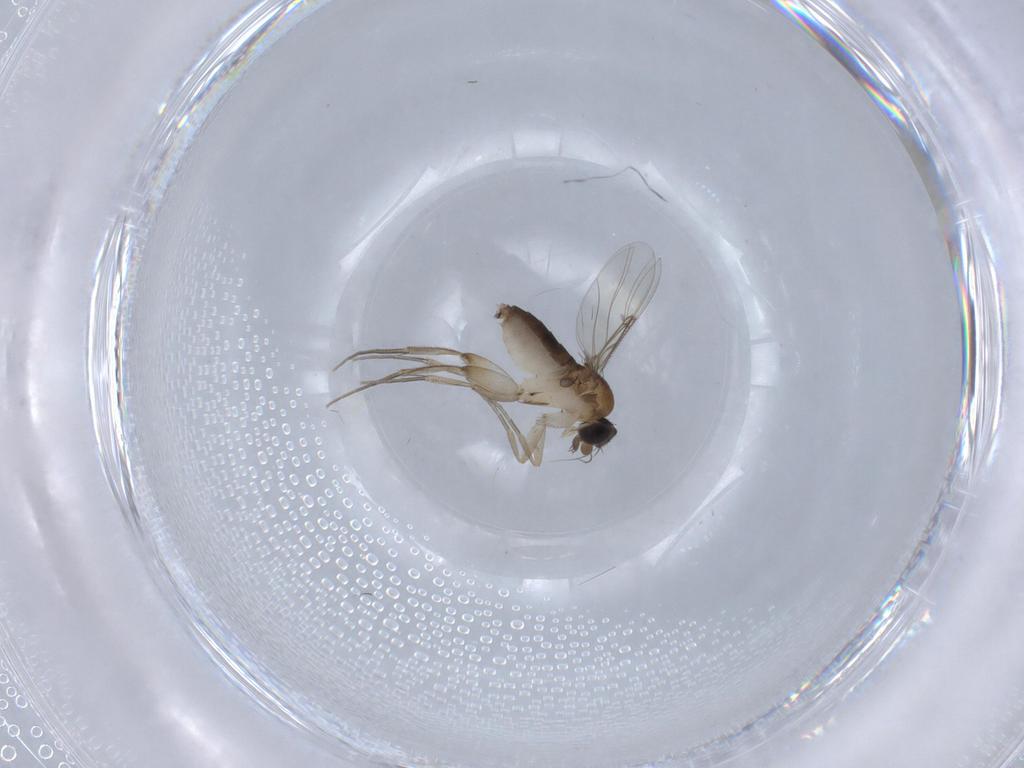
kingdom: Animalia
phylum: Arthropoda
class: Insecta
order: Diptera
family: Phoridae
